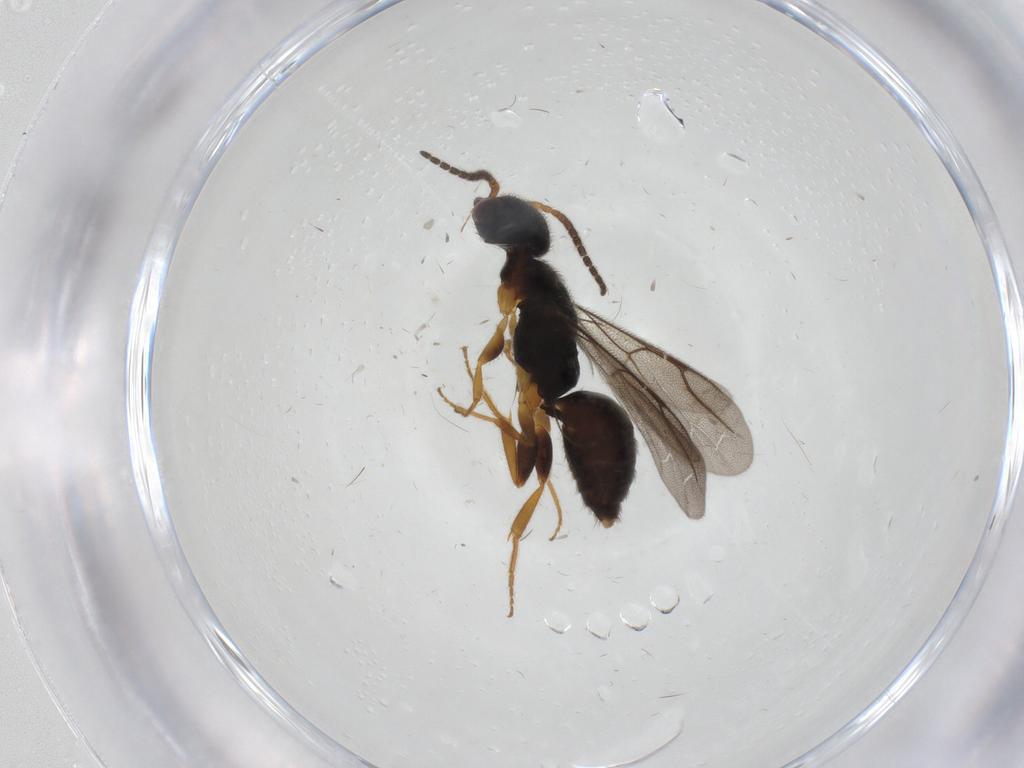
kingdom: Animalia
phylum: Arthropoda
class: Insecta
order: Hymenoptera
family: Bethylidae
